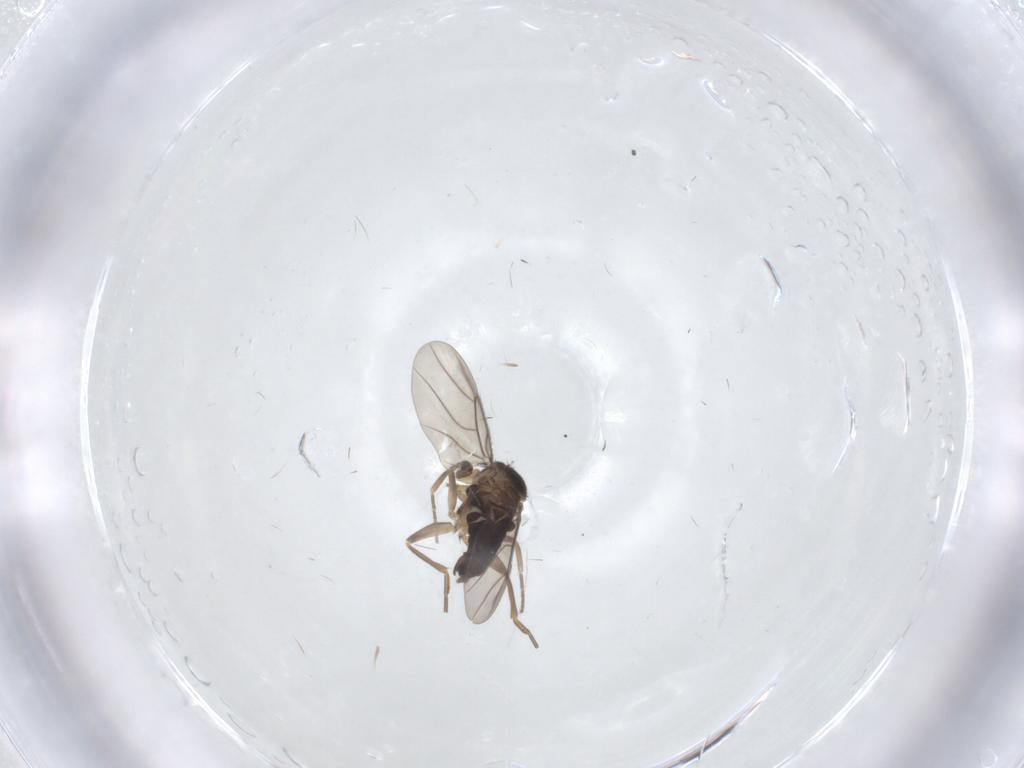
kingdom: Animalia
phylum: Arthropoda
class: Insecta
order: Diptera
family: Phoridae
